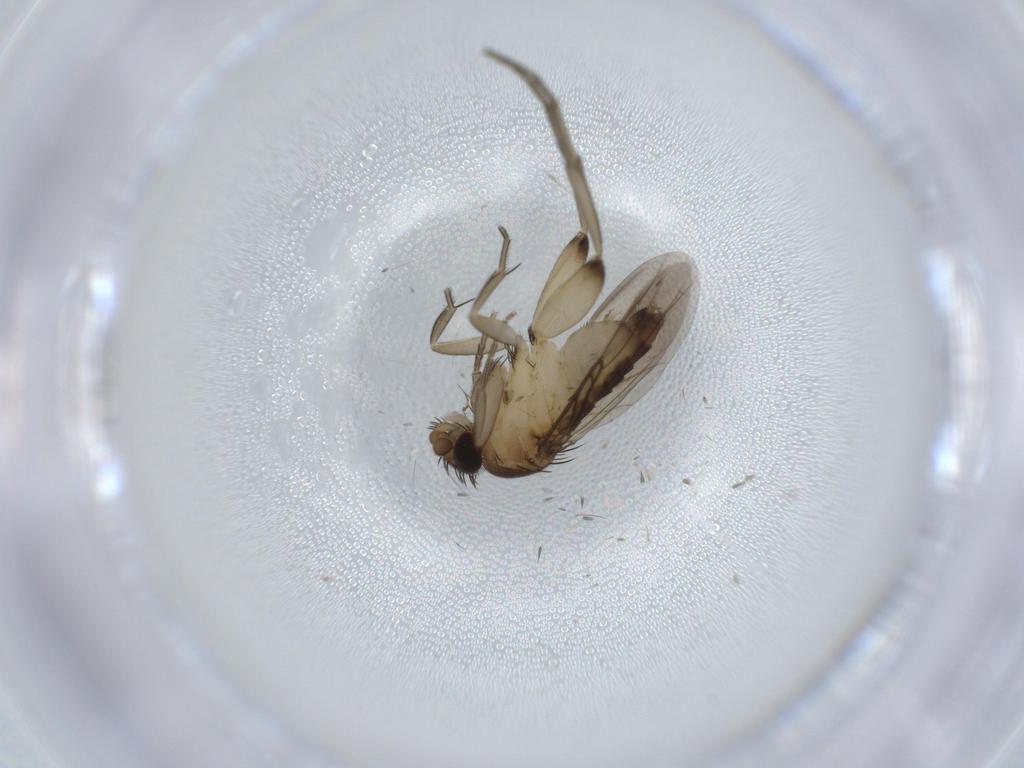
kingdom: Animalia
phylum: Arthropoda
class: Insecta
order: Diptera
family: Phoridae
